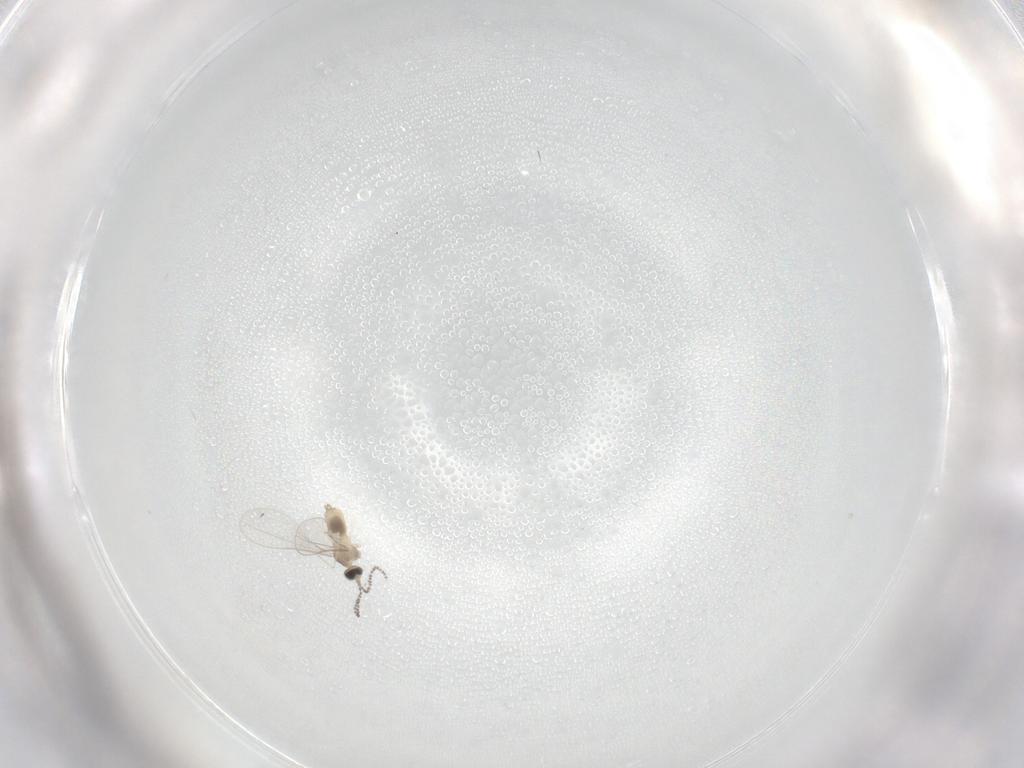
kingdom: Animalia
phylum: Arthropoda
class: Insecta
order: Diptera
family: Cecidomyiidae
